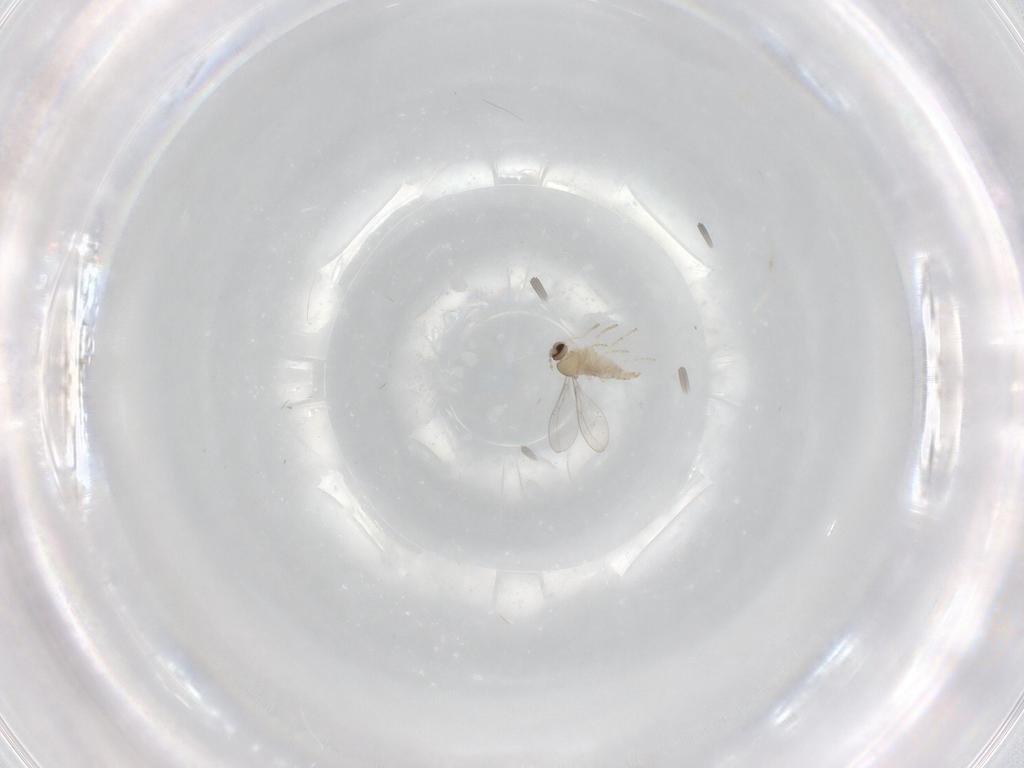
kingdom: Animalia
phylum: Arthropoda
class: Insecta
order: Diptera
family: Cecidomyiidae
